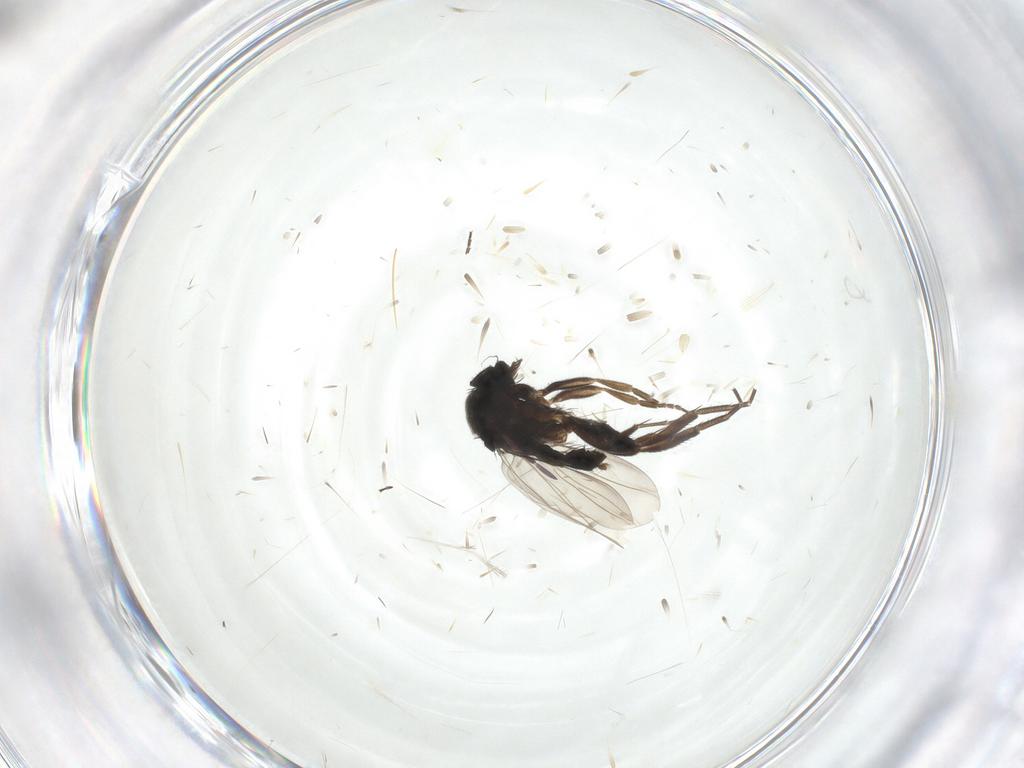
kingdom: Animalia
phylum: Arthropoda
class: Insecta
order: Diptera
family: Phoridae
